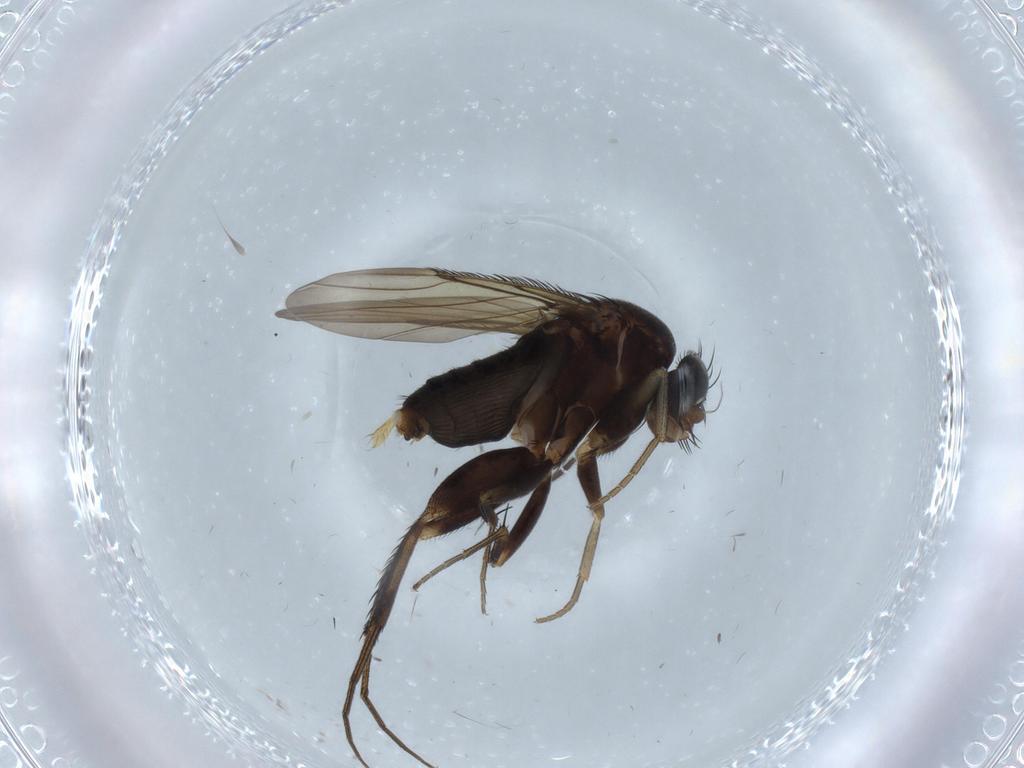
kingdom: Animalia
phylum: Arthropoda
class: Insecta
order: Diptera
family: Phoridae
